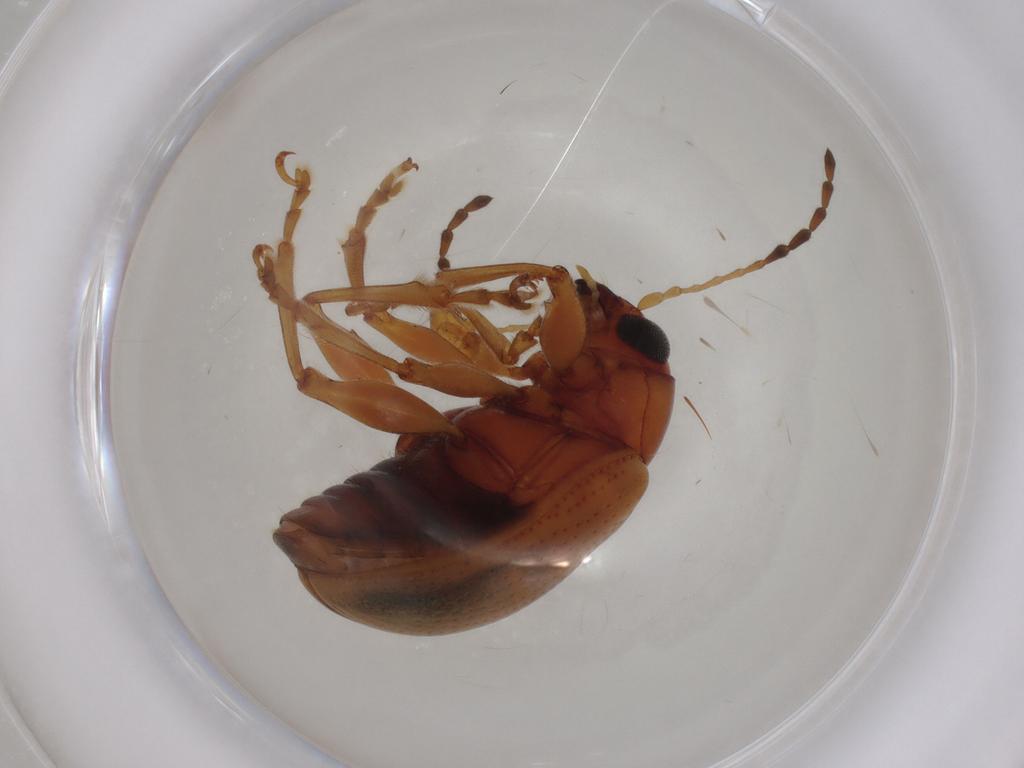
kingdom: Animalia
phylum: Arthropoda
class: Insecta
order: Coleoptera
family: Chrysomelidae
